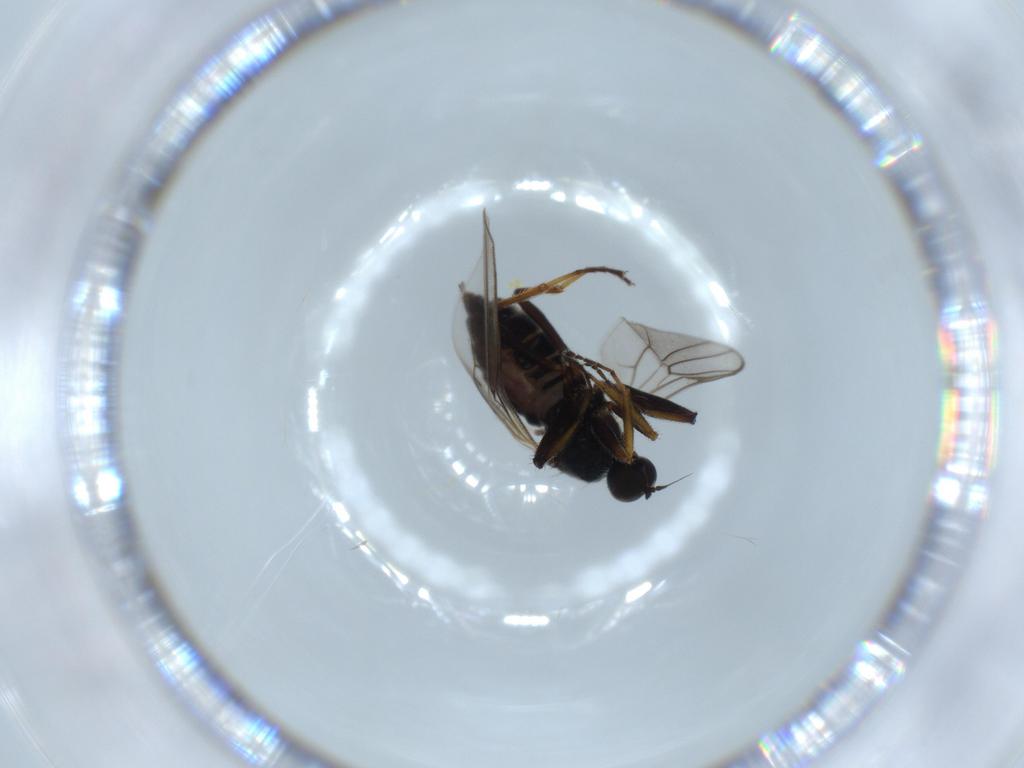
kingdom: Animalia
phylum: Arthropoda
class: Insecta
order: Diptera
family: Hybotidae
